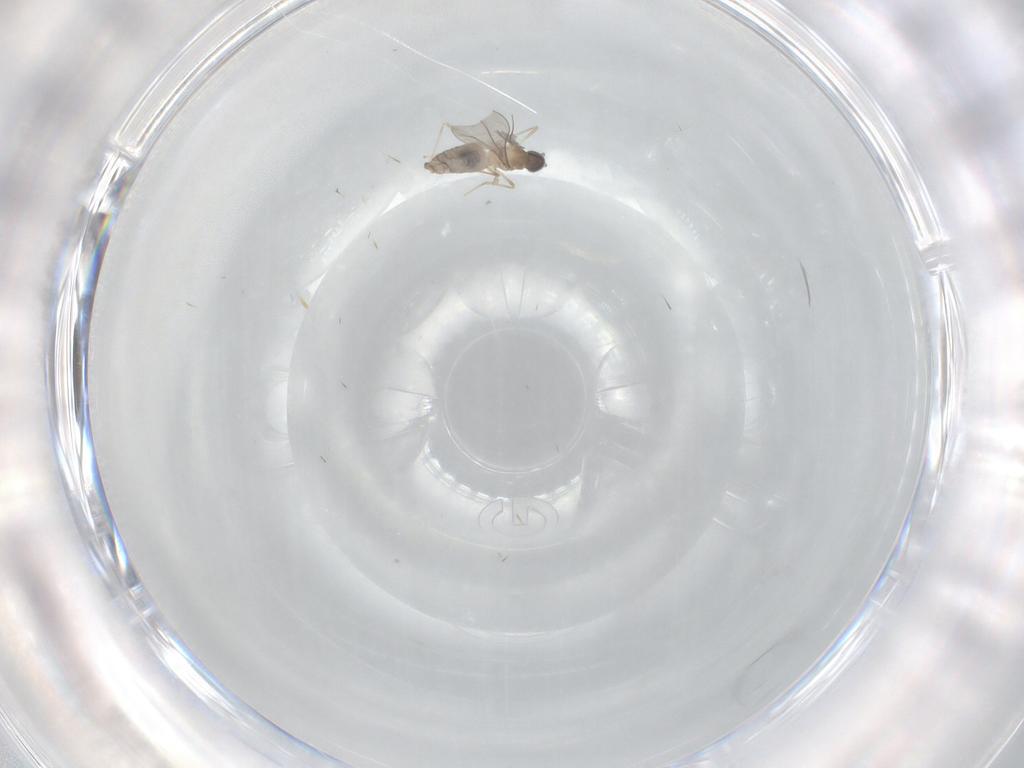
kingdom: Animalia
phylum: Arthropoda
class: Insecta
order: Diptera
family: Cecidomyiidae
